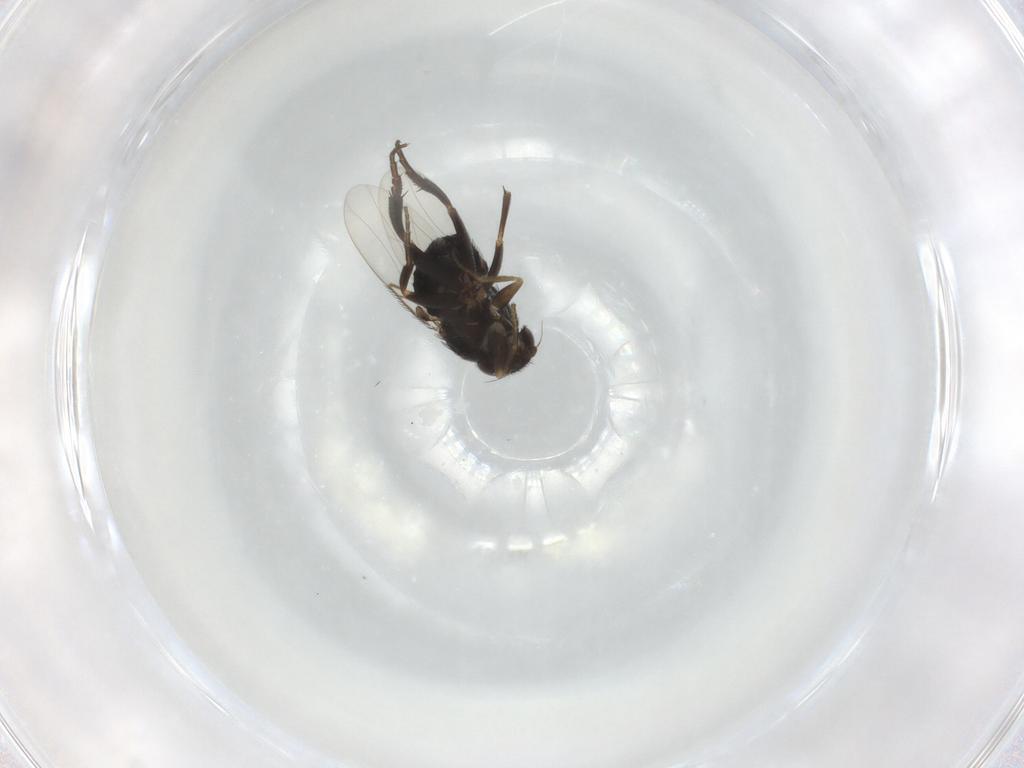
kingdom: Animalia
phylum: Arthropoda
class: Insecta
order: Diptera
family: Phoridae
